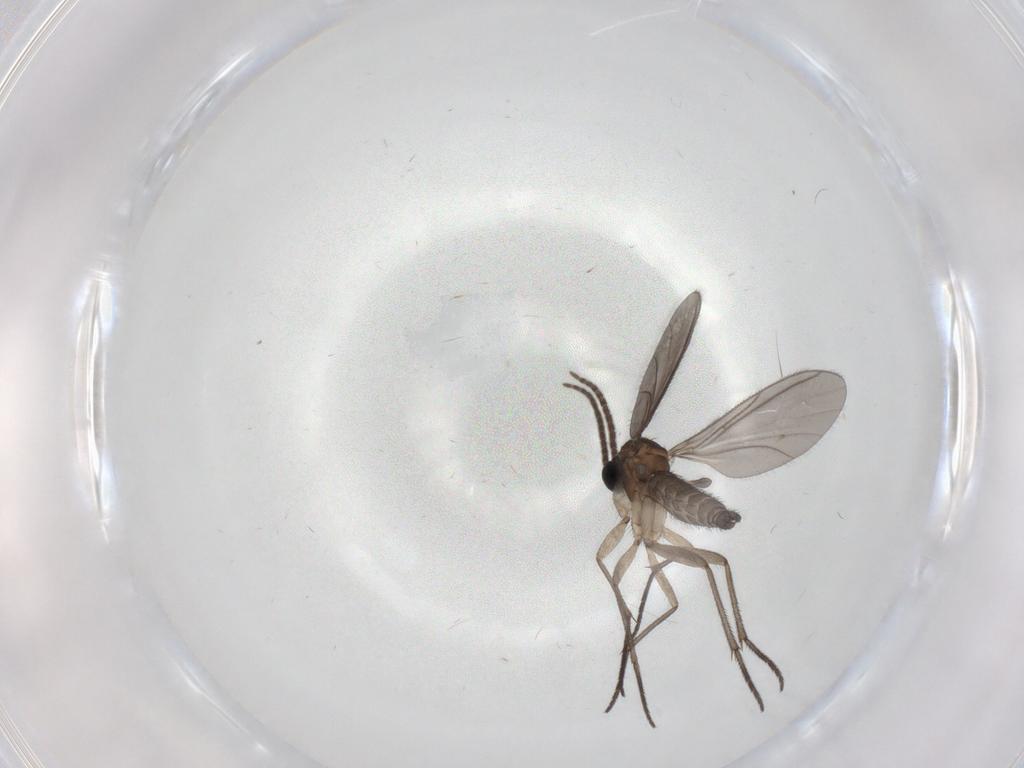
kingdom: Animalia
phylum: Arthropoda
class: Insecta
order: Diptera
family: Sciaridae
